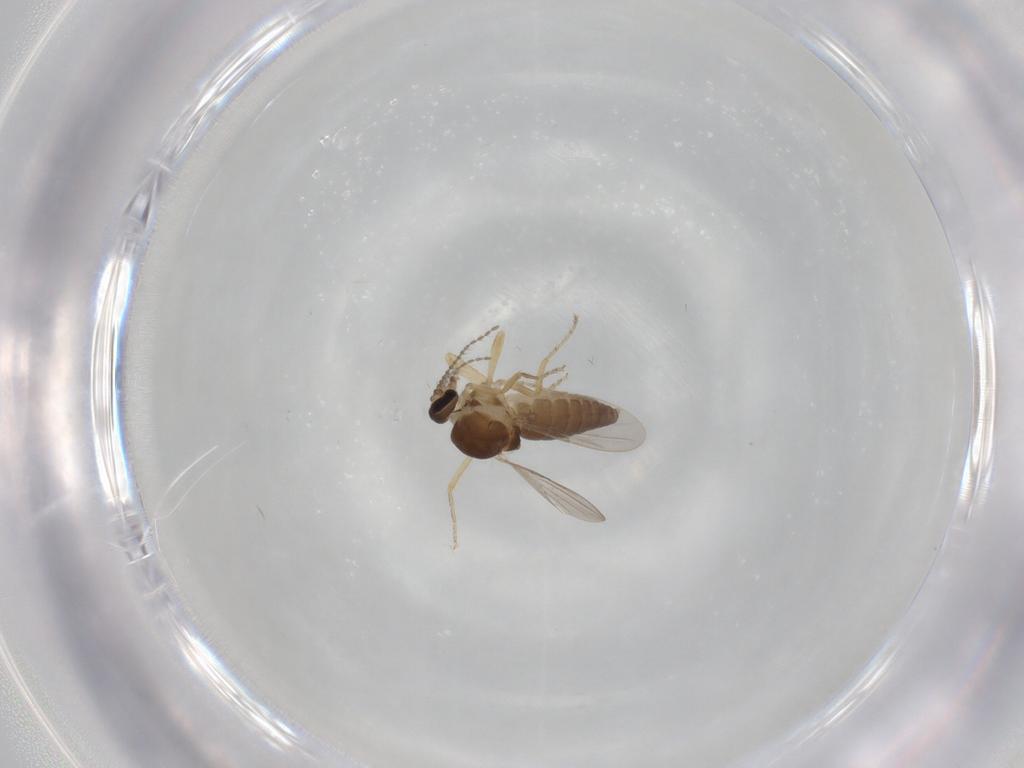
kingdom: Animalia
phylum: Arthropoda
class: Insecta
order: Diptera
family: Ceratopogonidae
